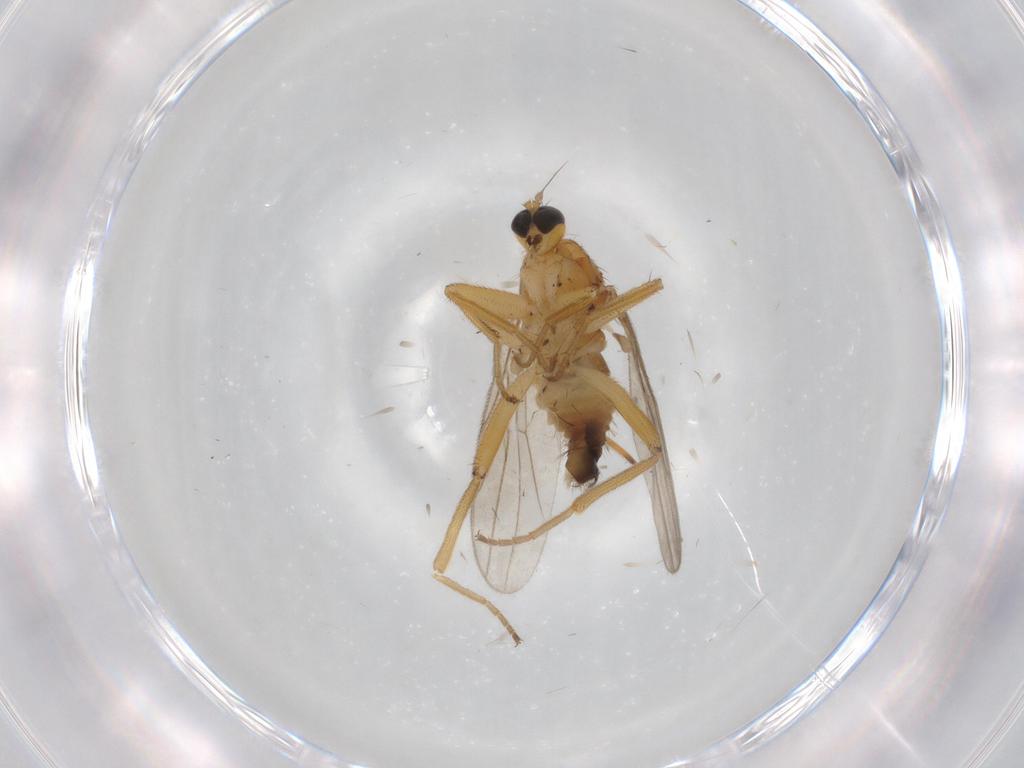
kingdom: Animalia
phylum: Arthropoda
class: Insecta
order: Diptera
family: Hybotidae
